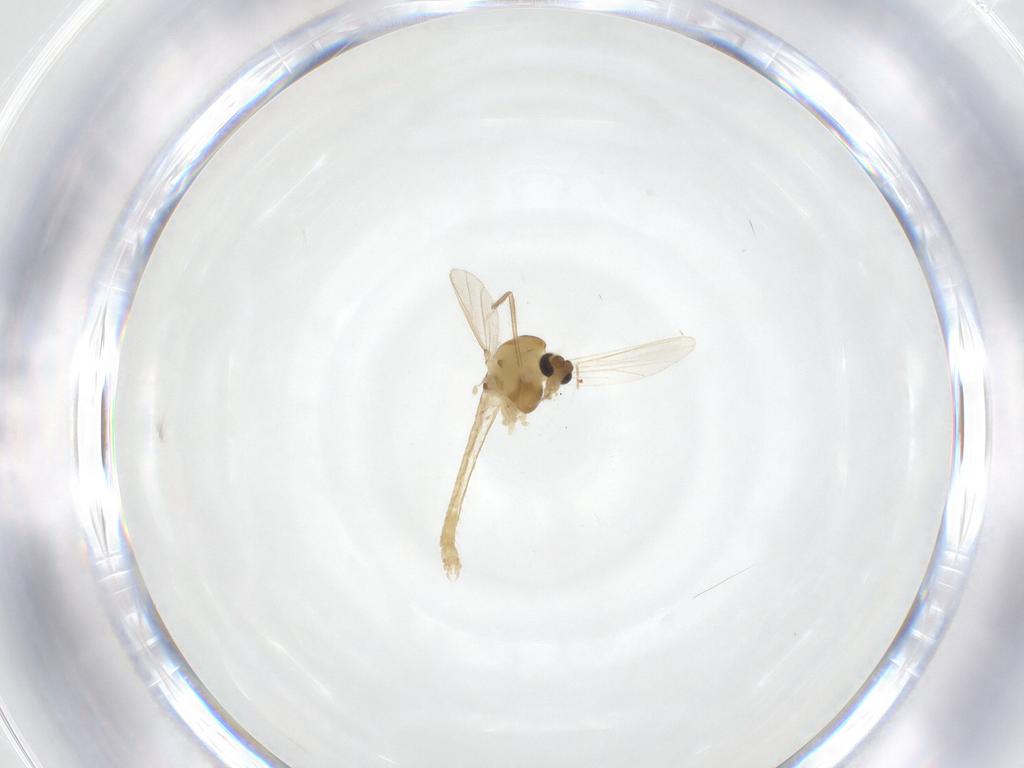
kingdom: Animalia
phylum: Arthropoda
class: Insecta
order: Diptera
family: Chironomidae
